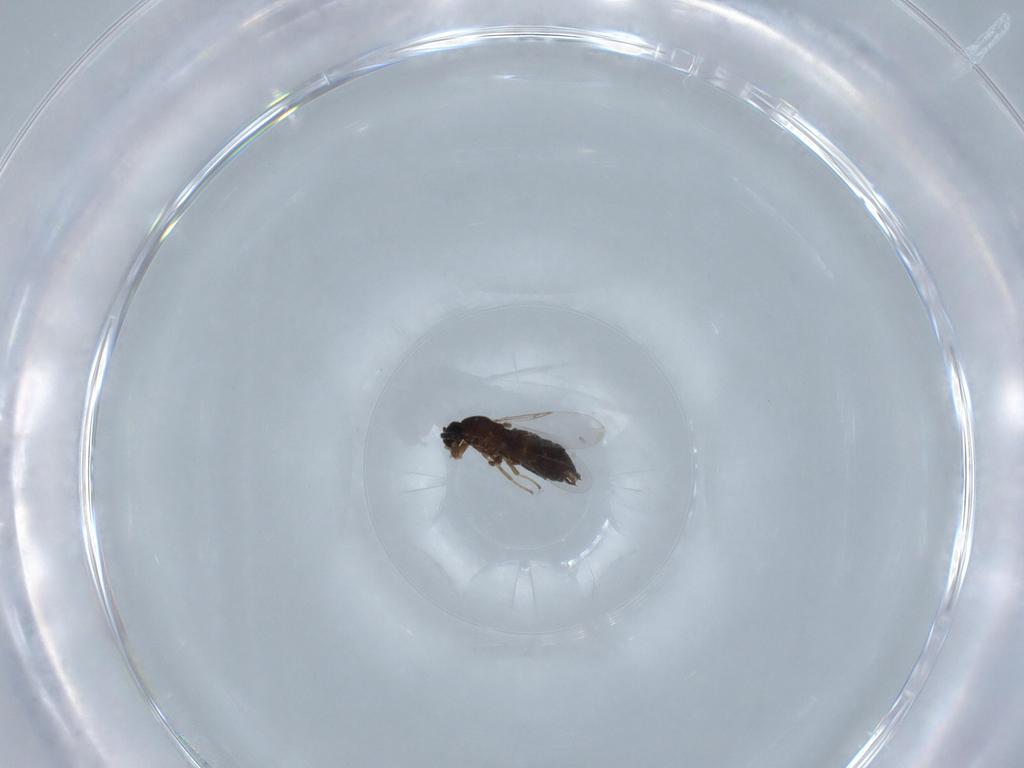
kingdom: Animalia
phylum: Arthropoda
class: Insecta
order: Diptera
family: Scatopsidae
